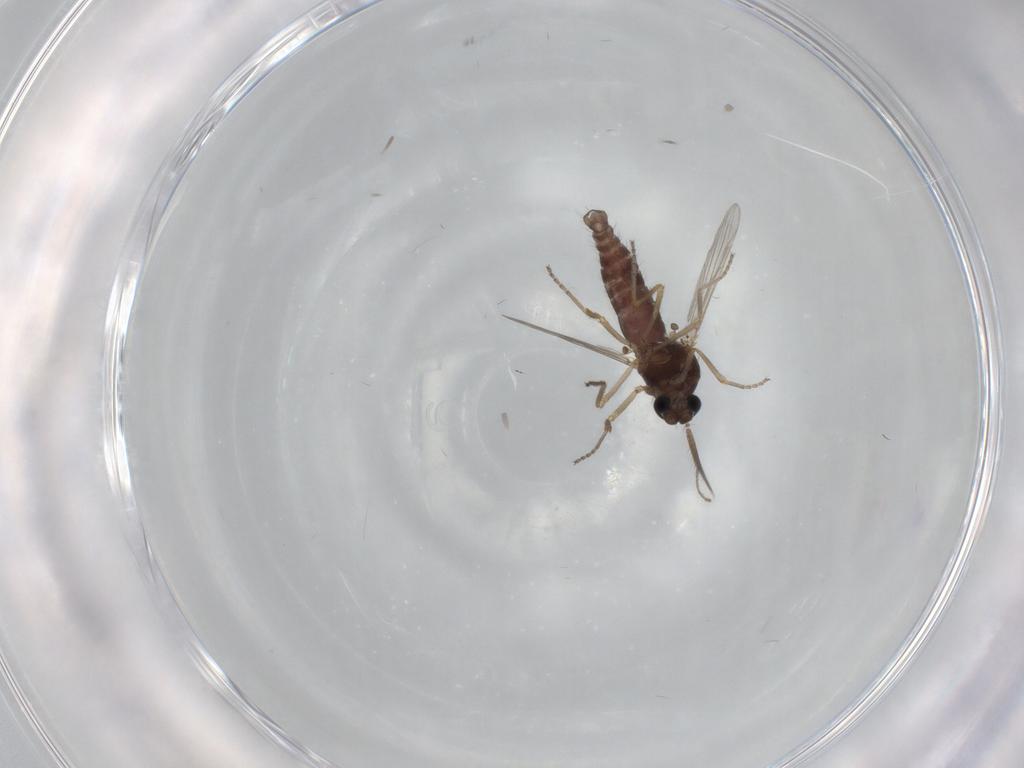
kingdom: Animalia
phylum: Arthropoda
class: Insecta
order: Diptera
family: Ceratopogonidae
